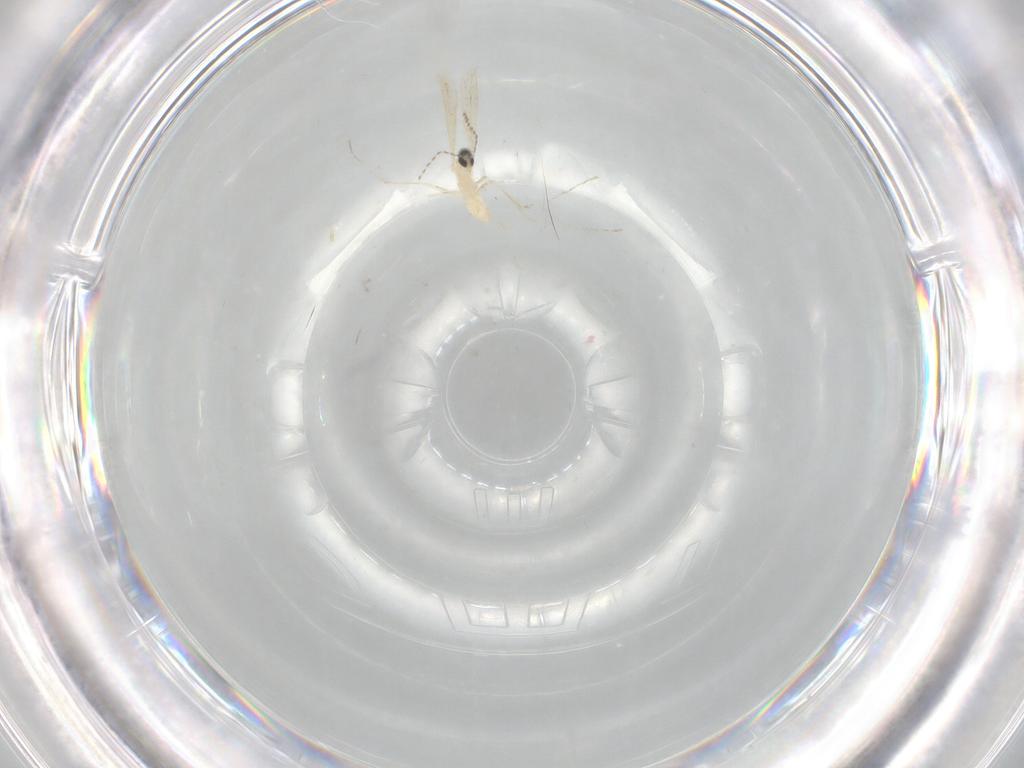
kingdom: Animalia
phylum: Arthropoda
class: Insecta
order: Diptera
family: Cecidomyiidae
